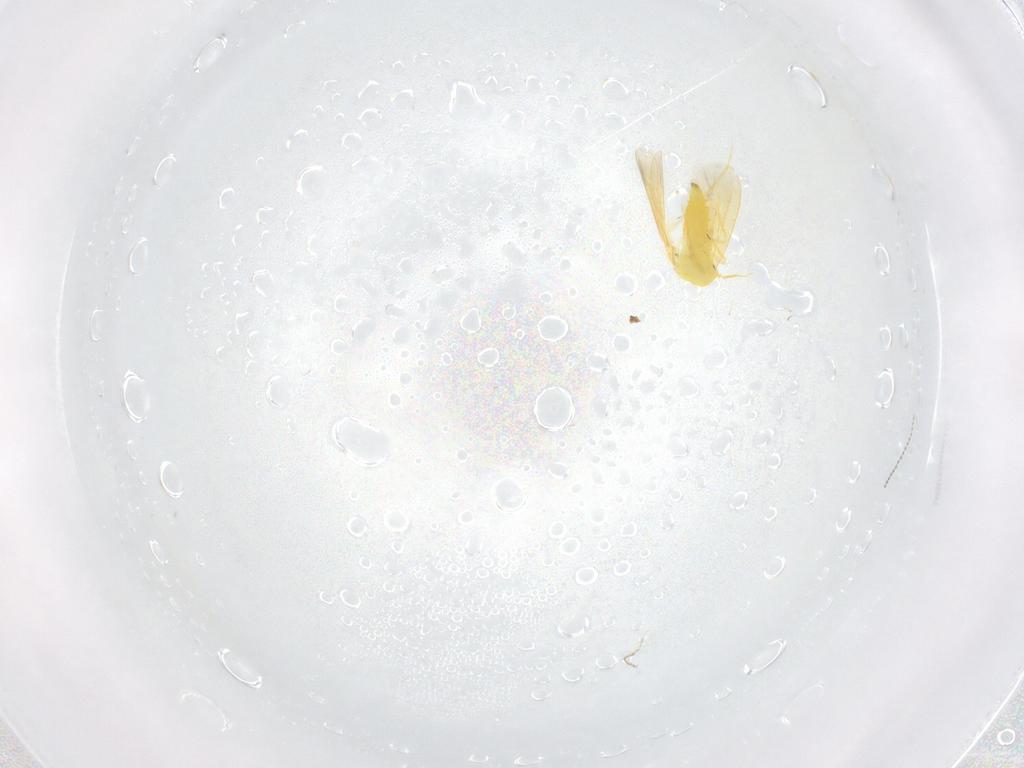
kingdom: Animalia
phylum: Arthropoda
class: Insecta
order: Hemiptera
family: Aleyrodidae
